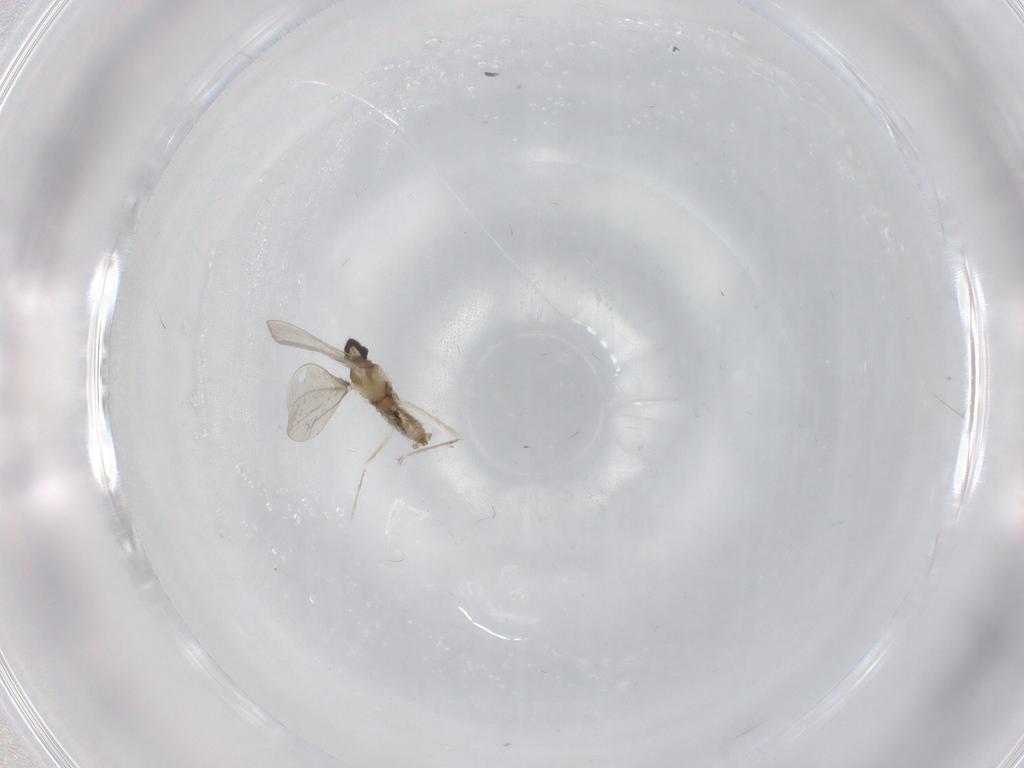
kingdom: Animalia
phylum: Arthropoda
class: Insecta
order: Diptera
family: Cecidomyiidae
